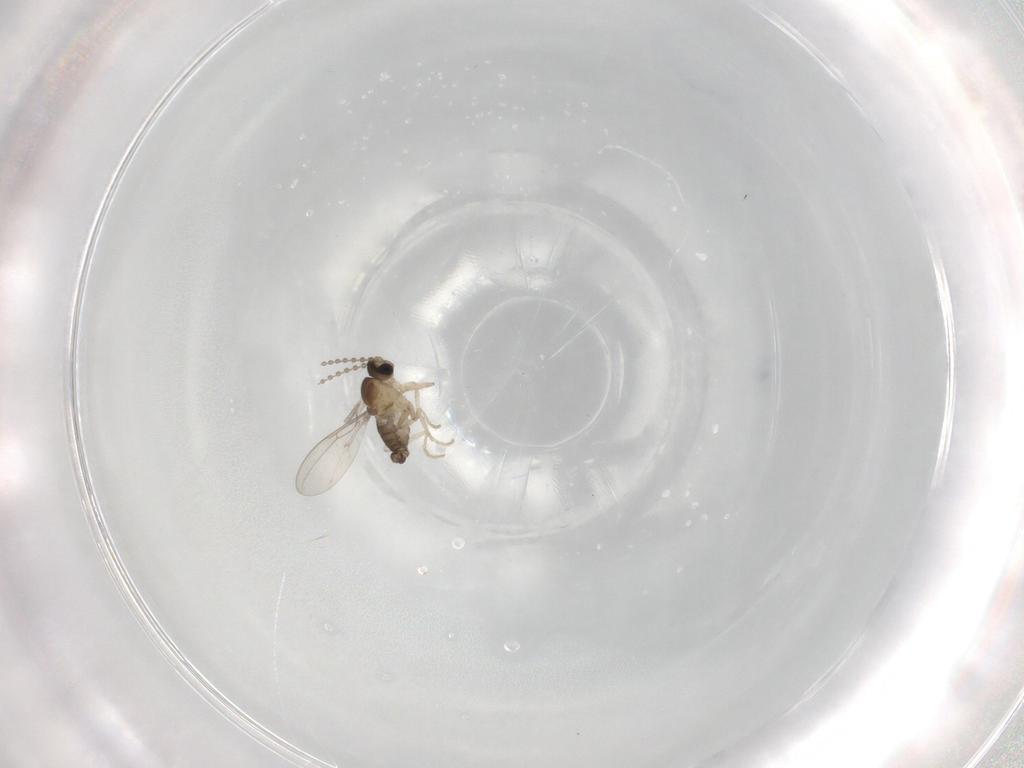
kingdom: Animalia
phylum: Arthropoda
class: Insecta
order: Diptera
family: Cecidomyiidae
